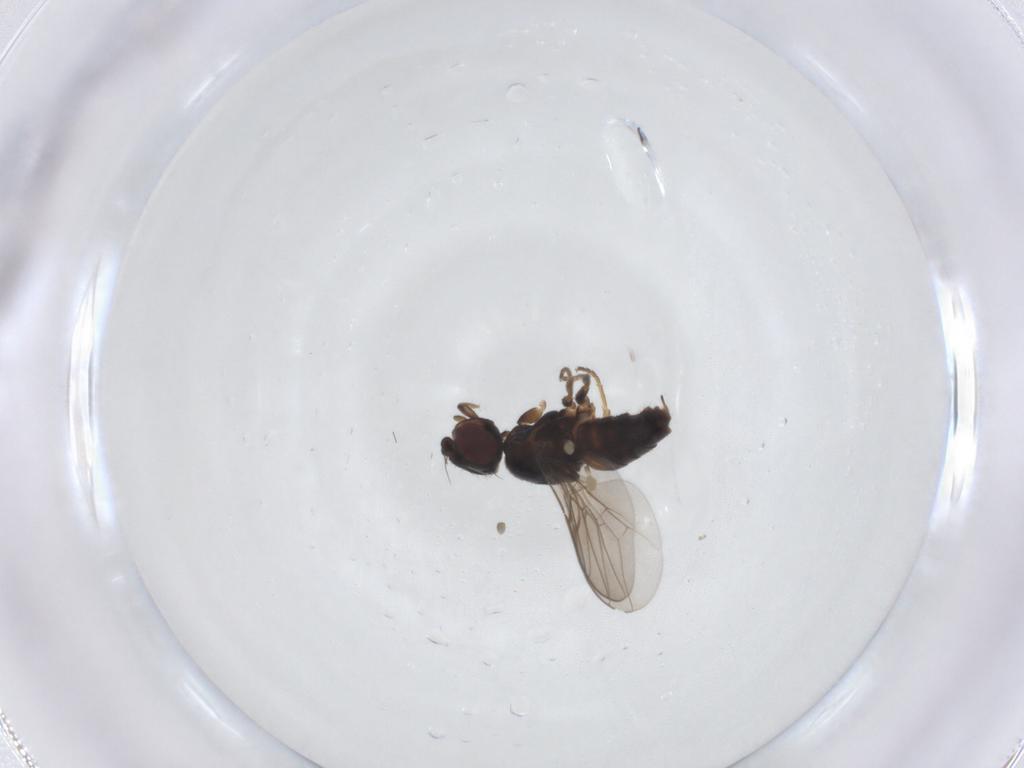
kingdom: Animalia
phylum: Arthropoda
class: Insecta
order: Diptera
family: Chloropidae
